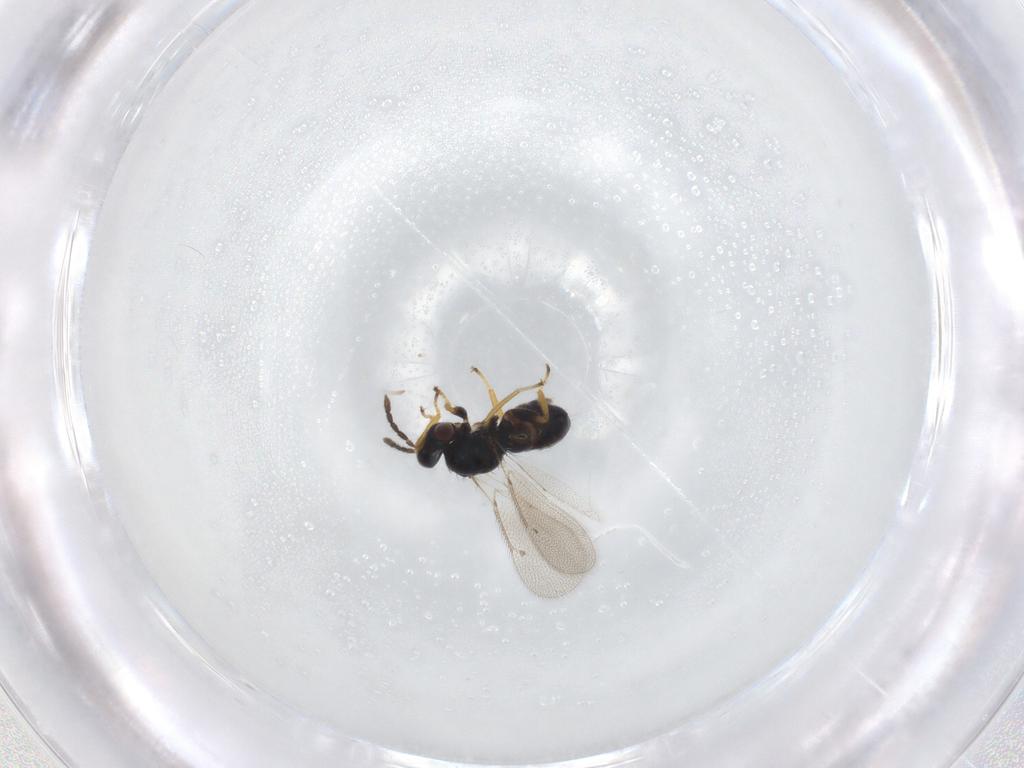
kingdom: Animalia
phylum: Arthropoda
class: Insecta
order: Hymenoptera
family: Eulophidae
